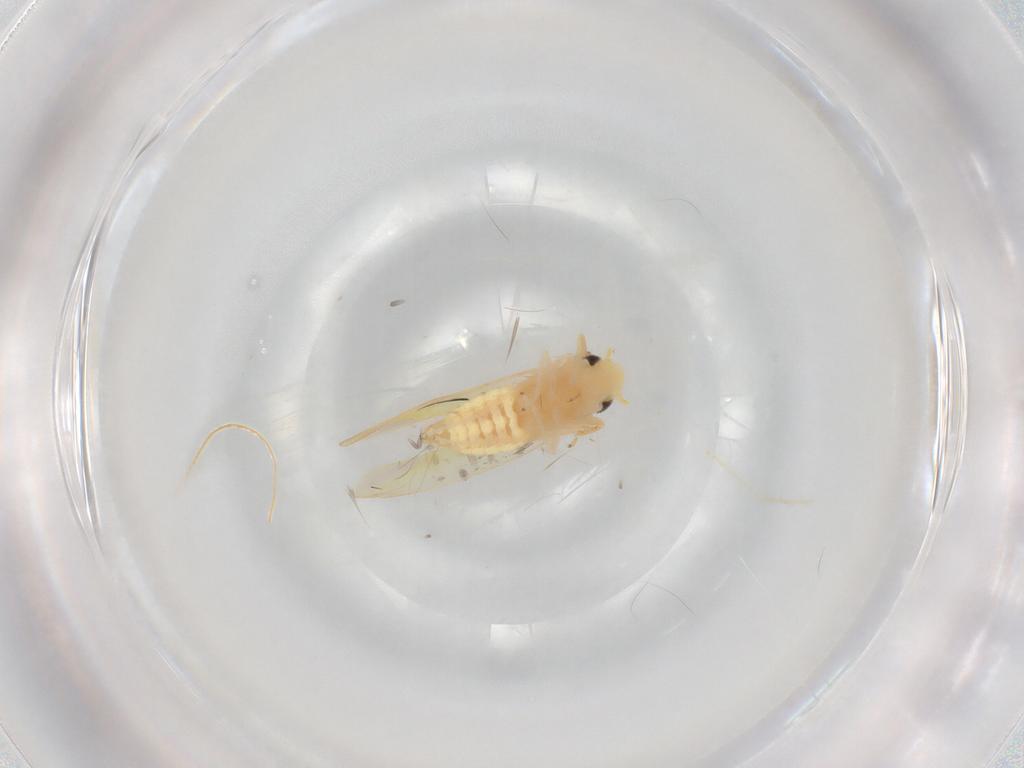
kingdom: Animalia
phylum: Arthropoda
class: Insecta
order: Hemiptera
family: Cicadellidae
